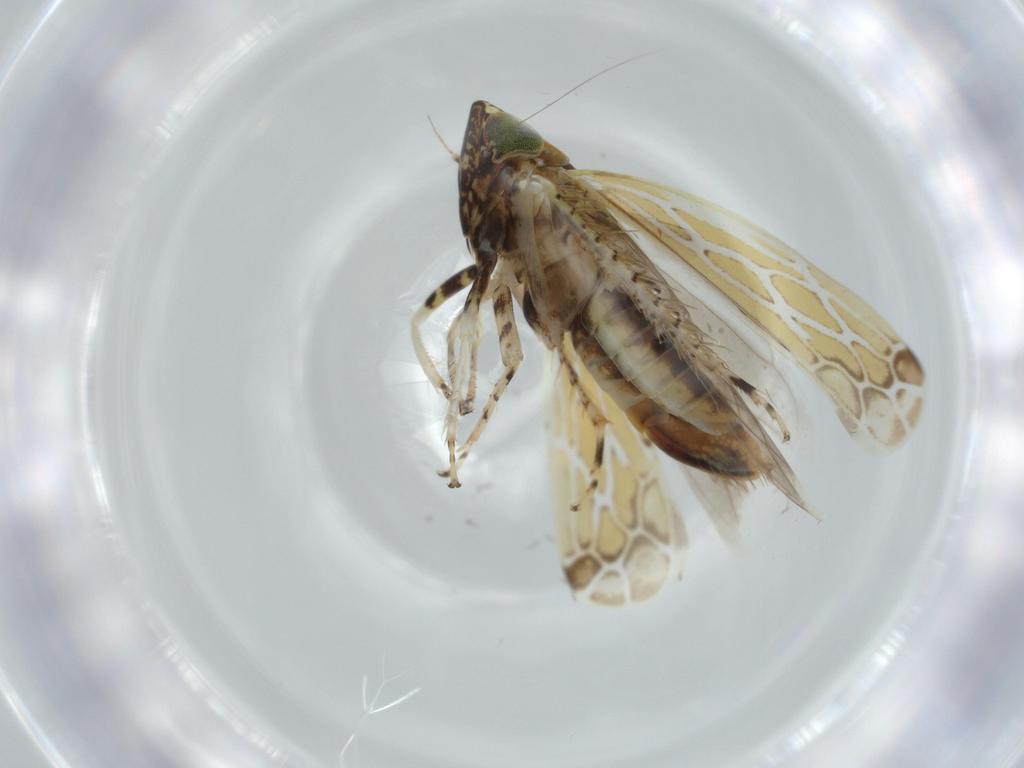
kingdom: Animalia
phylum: Arthropoda
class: Insecta
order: Hemiptera
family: Cicadellidae
